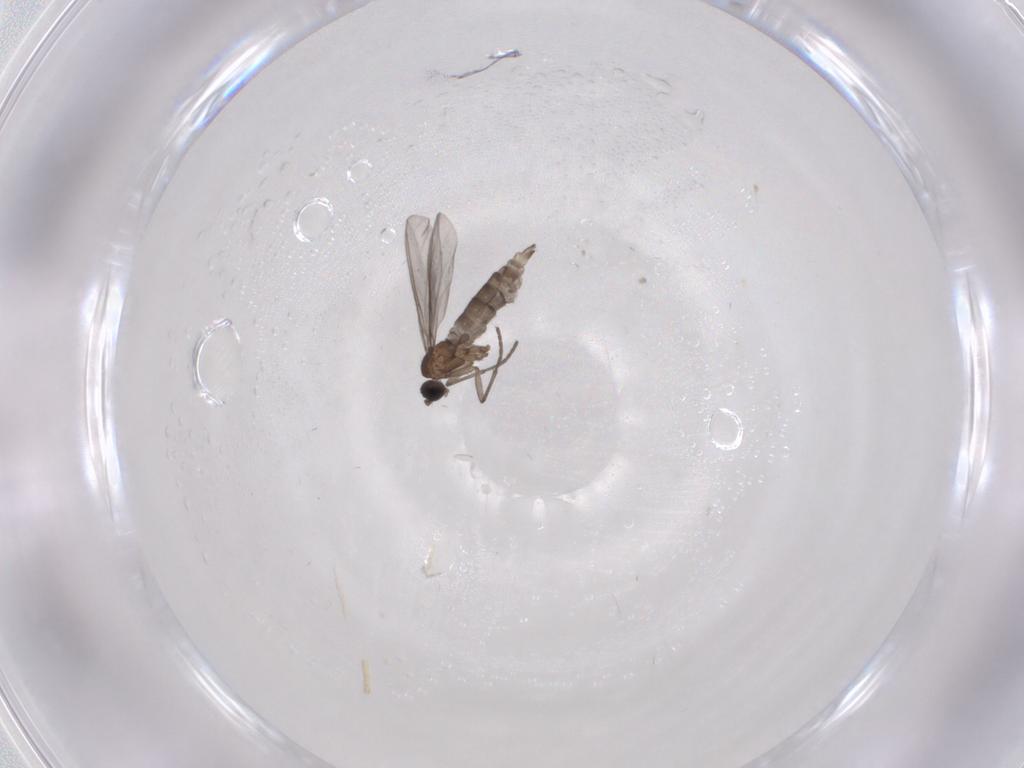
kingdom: Animalia
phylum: Arthropoda
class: Insecta
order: Diptera
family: Sciaridae
